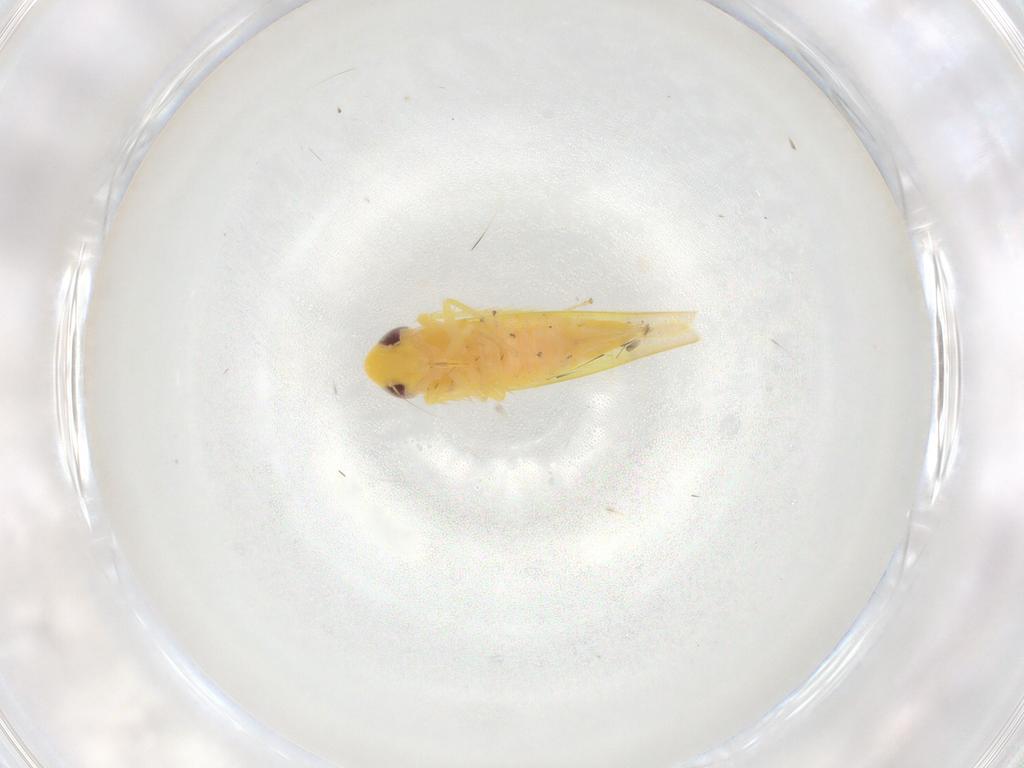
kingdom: Animalia
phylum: Arthropoda
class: Insecta
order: Hemiptera
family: Cicadellidae
